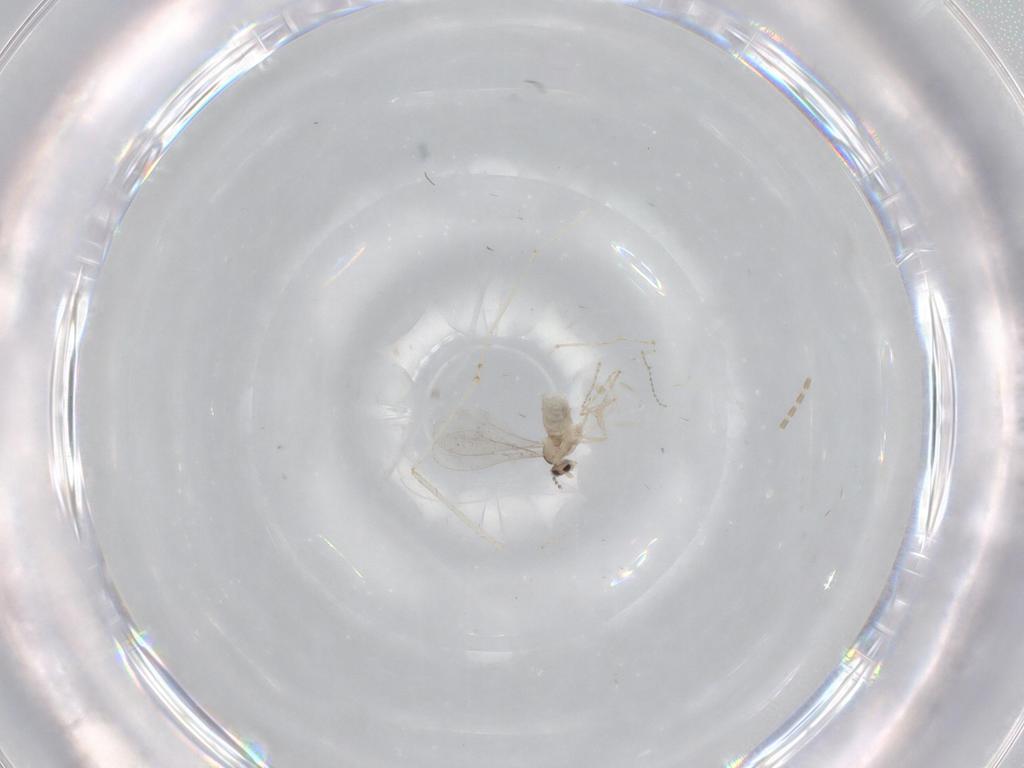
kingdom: Animalia
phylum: Arthropoda
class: Insecta
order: Diptera
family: Cecidomyiidae
